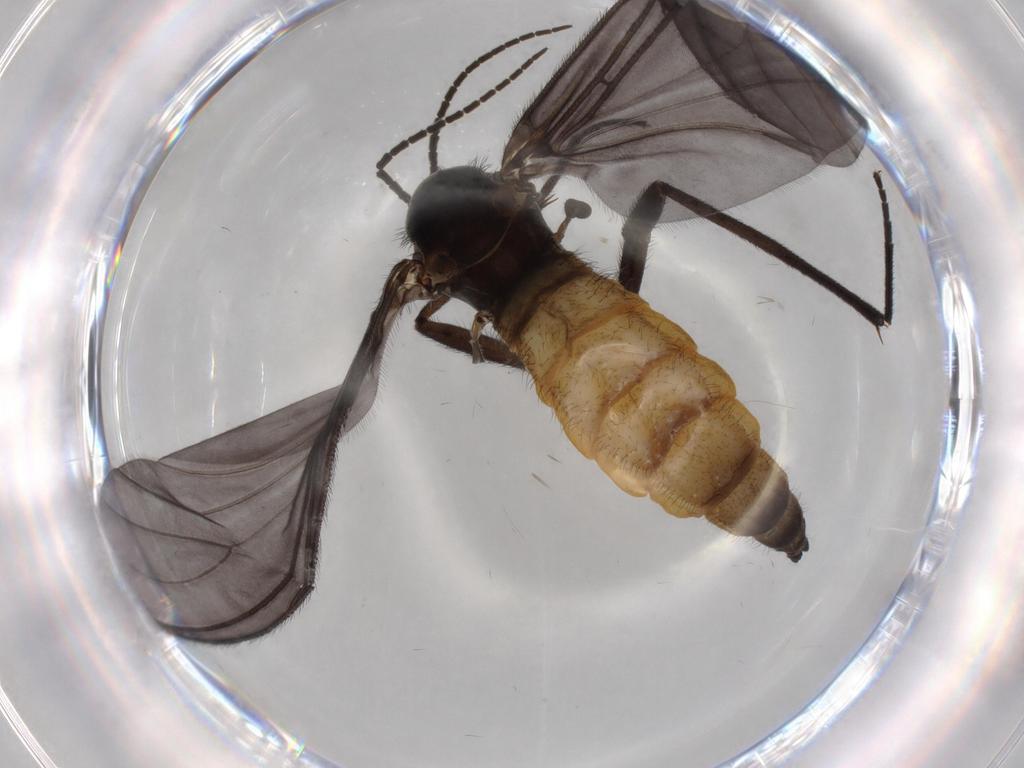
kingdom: Animalia
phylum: Arthropoda
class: Insecta
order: Diptera
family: Cecidomyiidae
